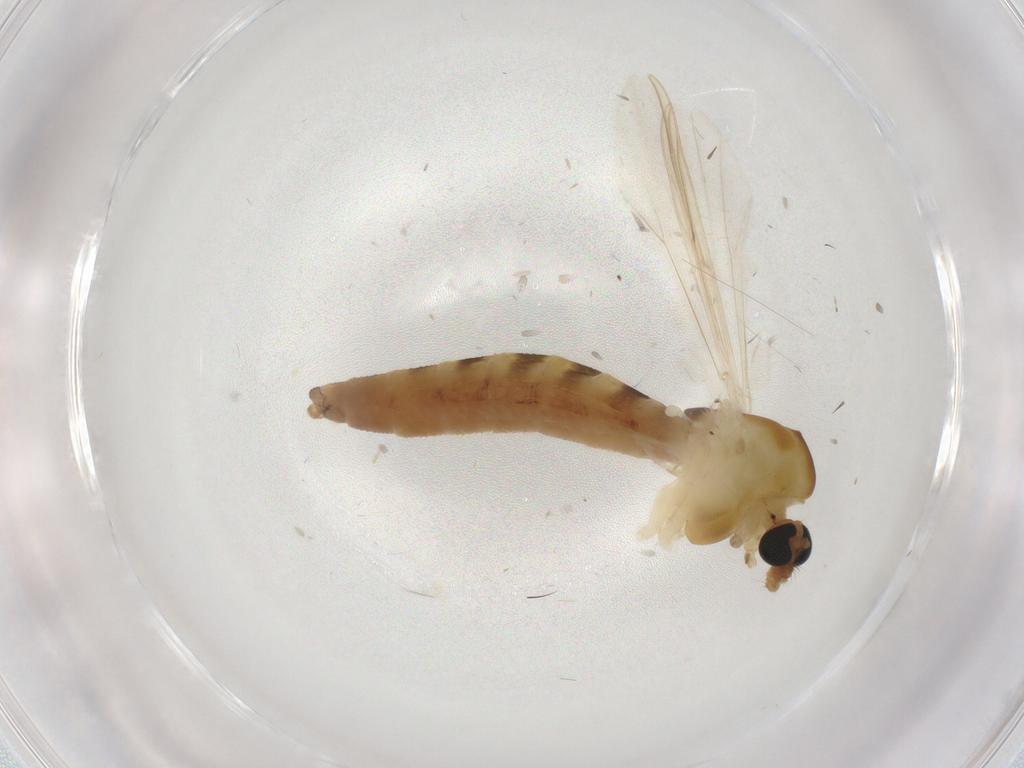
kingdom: Animalia
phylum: Arthropoda
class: Insecta
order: Diptera
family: Chironomidae
